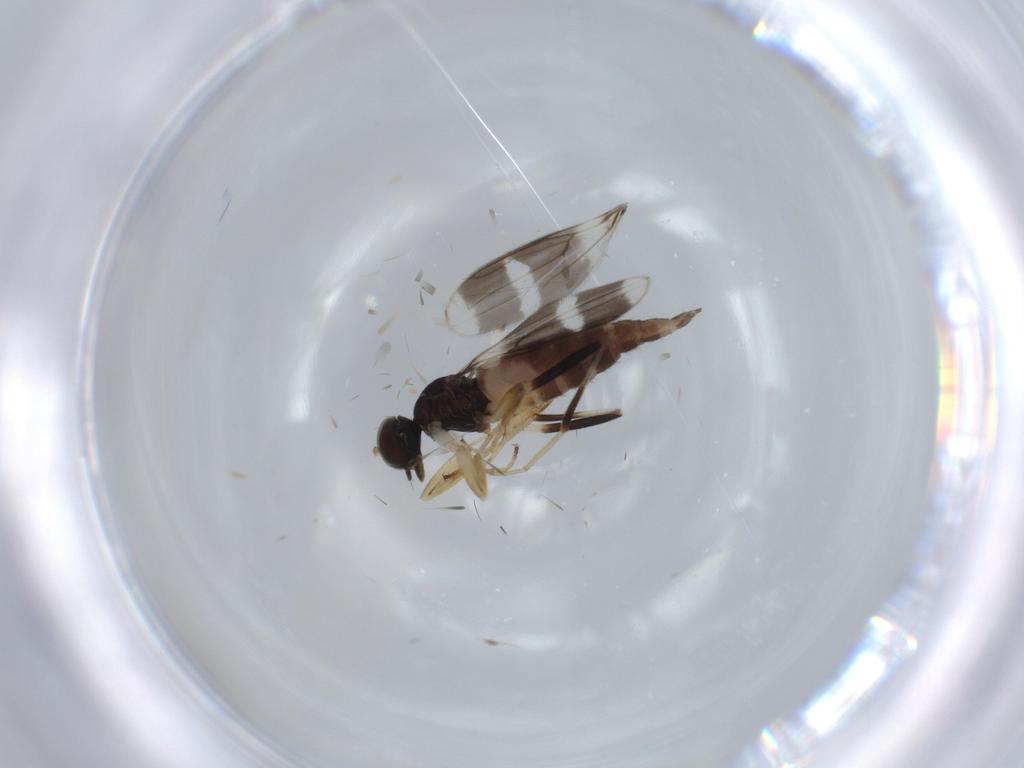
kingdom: Animalia
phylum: Arthropoda
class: Insecta
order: Diptera
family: Hybotidae
